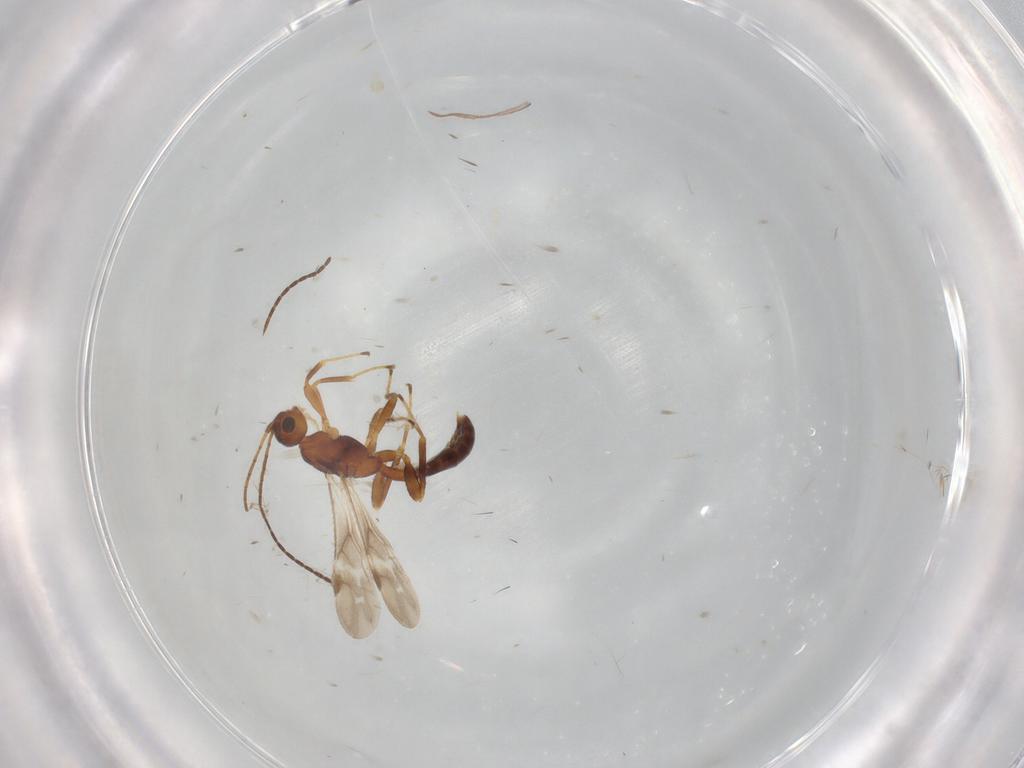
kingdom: Animalia
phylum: Arthropoda
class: Insecta
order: Hymenoptera
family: Braconidae
